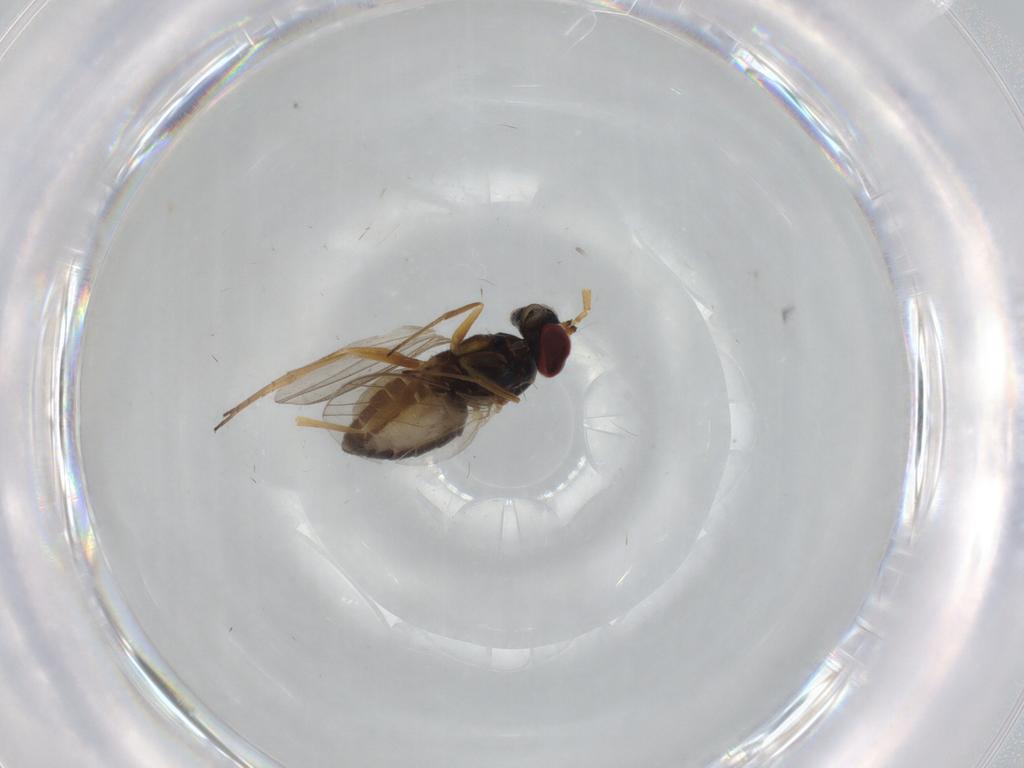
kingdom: Animalia
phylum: Arthropoda
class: Insecta
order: Diptera
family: Dolichopodidae
